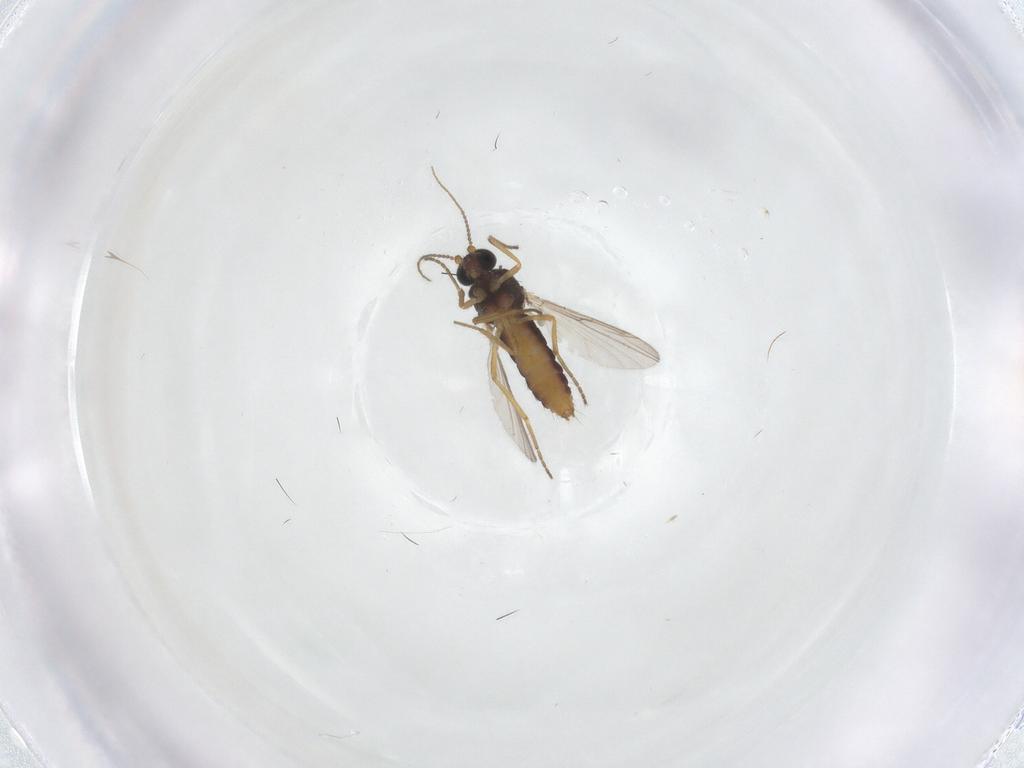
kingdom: Animalia
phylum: Arthropoda
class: Insecta
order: Diptera
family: Ceratopogonidae
